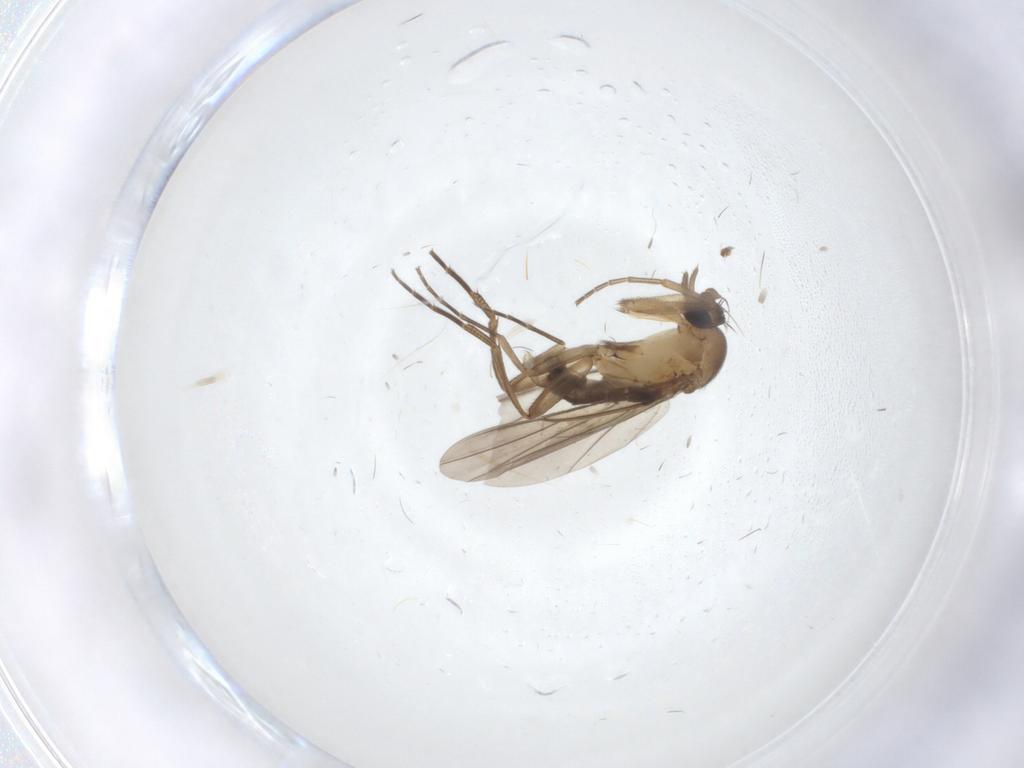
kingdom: Animalia
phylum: Arthropoda
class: Insecta
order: Diptera
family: Phoridae
